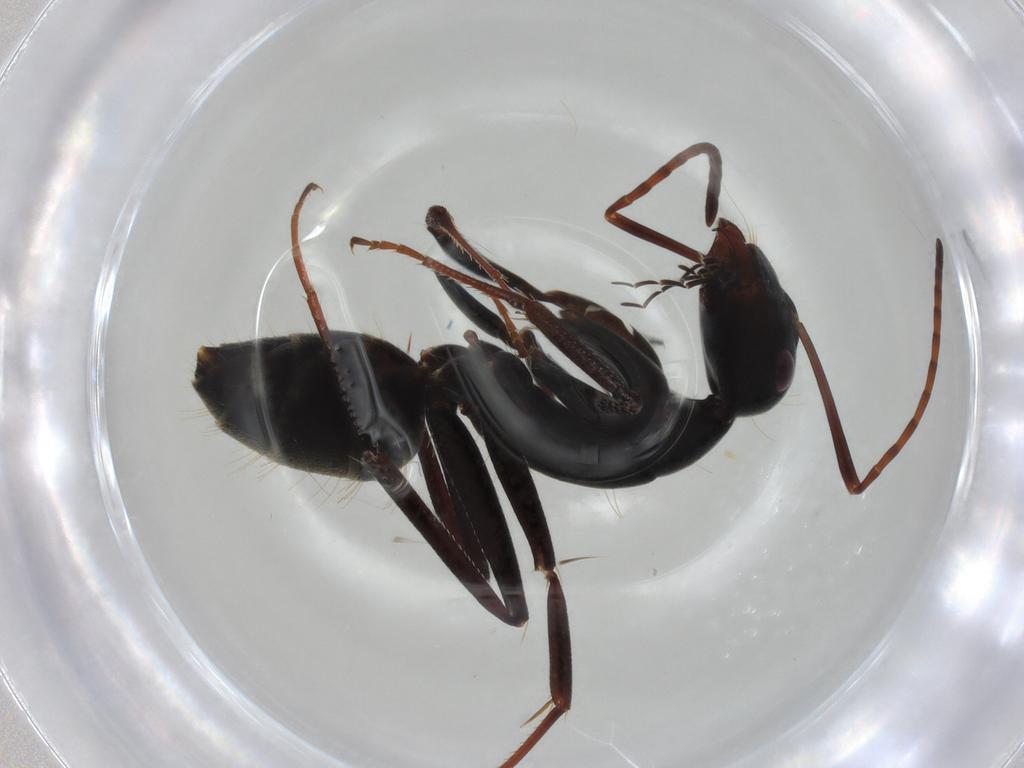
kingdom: Animalia
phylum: Arthropoda
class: Insecta
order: Hymenoptera
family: Formicidae
